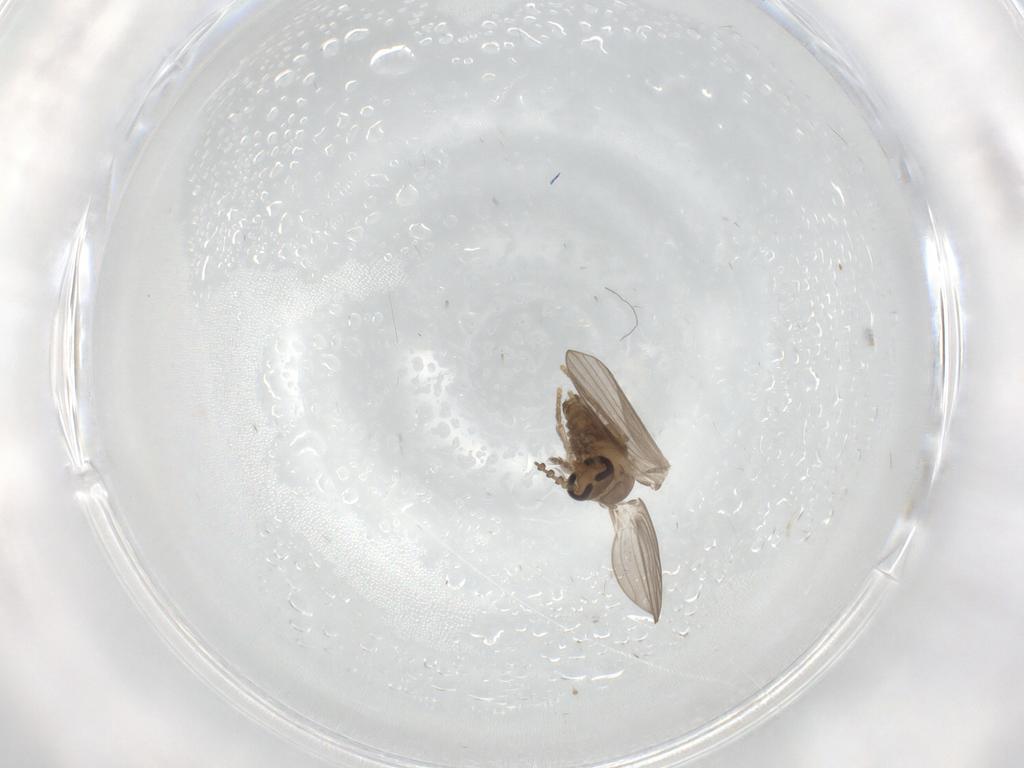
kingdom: Animalia
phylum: Arthropoda
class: Insecta
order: Diptera
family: Psychodidae
